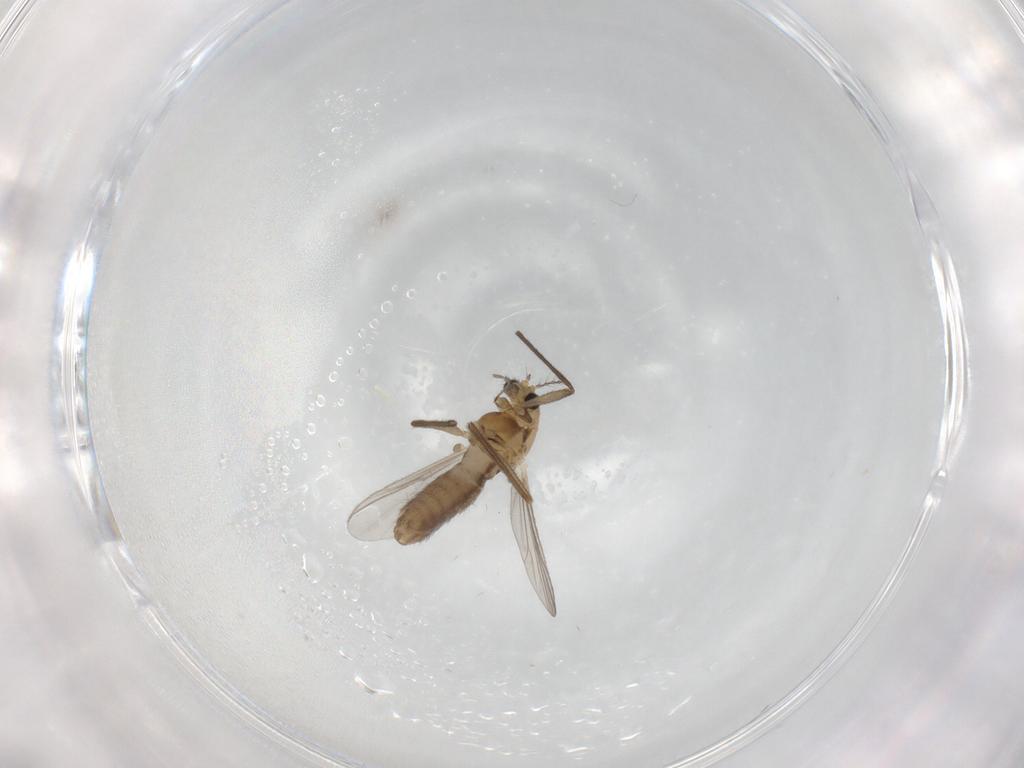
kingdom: Animalia
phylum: Arthropoda
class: Insecta
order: Diptera
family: Chironomidae
